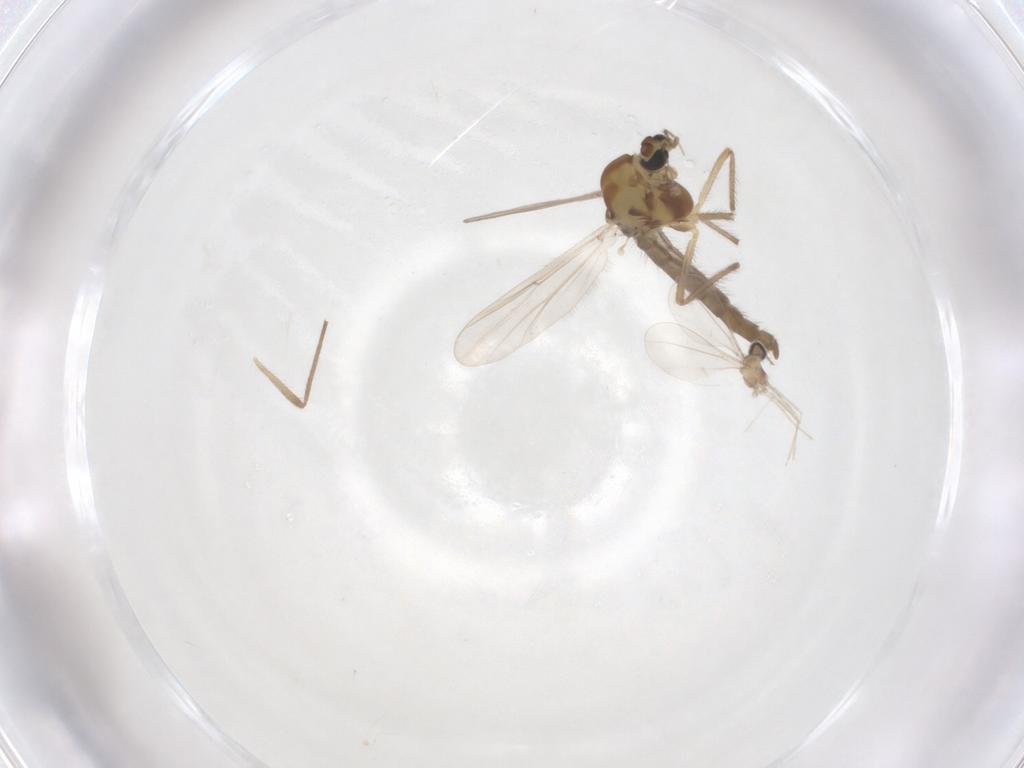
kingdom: Animalia
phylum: Arthropoda
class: Insecta
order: Diptera
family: Chironomidae
